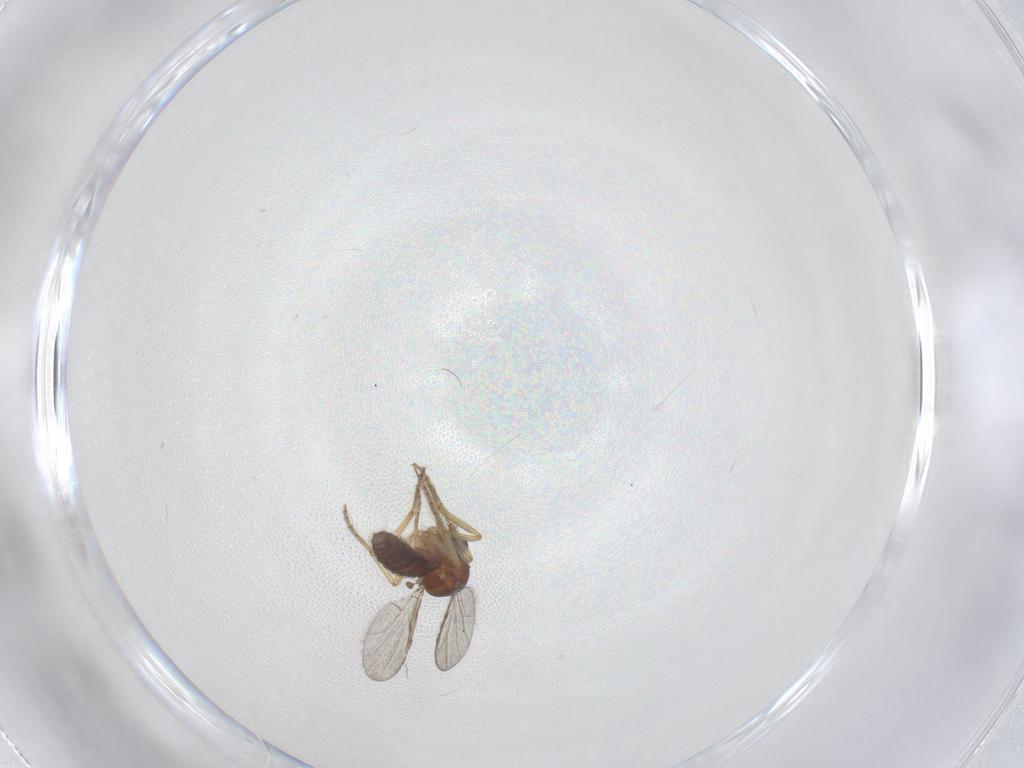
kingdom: Animalia
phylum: Arthropoda
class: Insecta
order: Diptera
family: Ceratopogonidae
